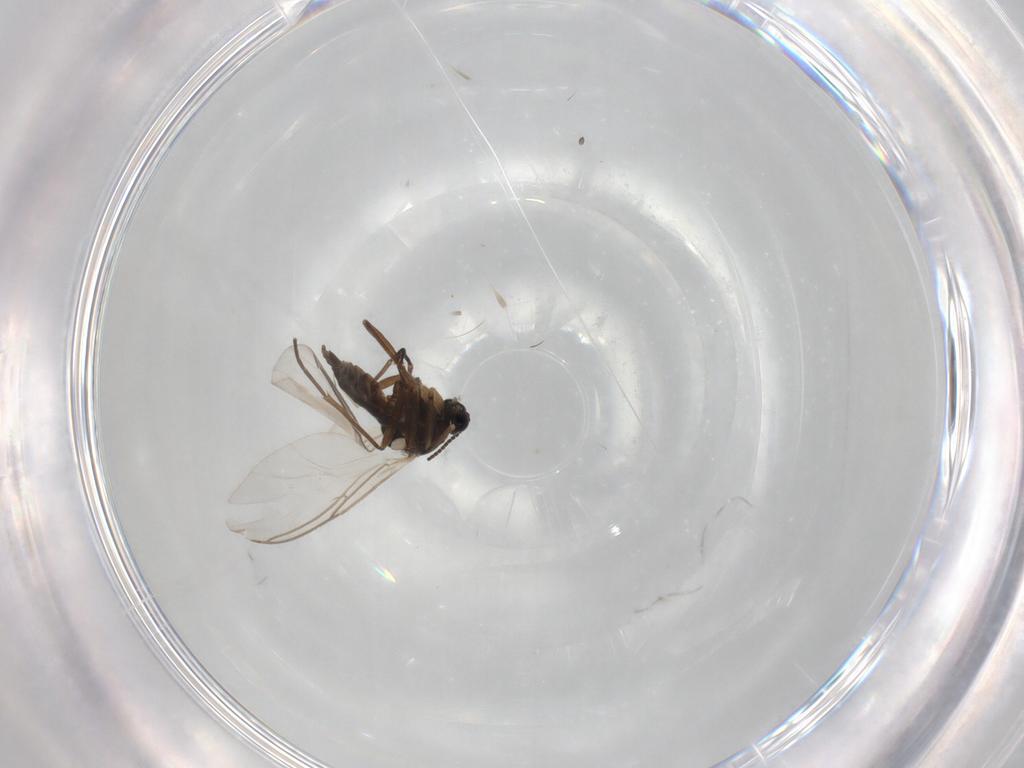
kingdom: Animalia
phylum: Arthropoda
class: Insecta
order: Diptera
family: Sciaridae
